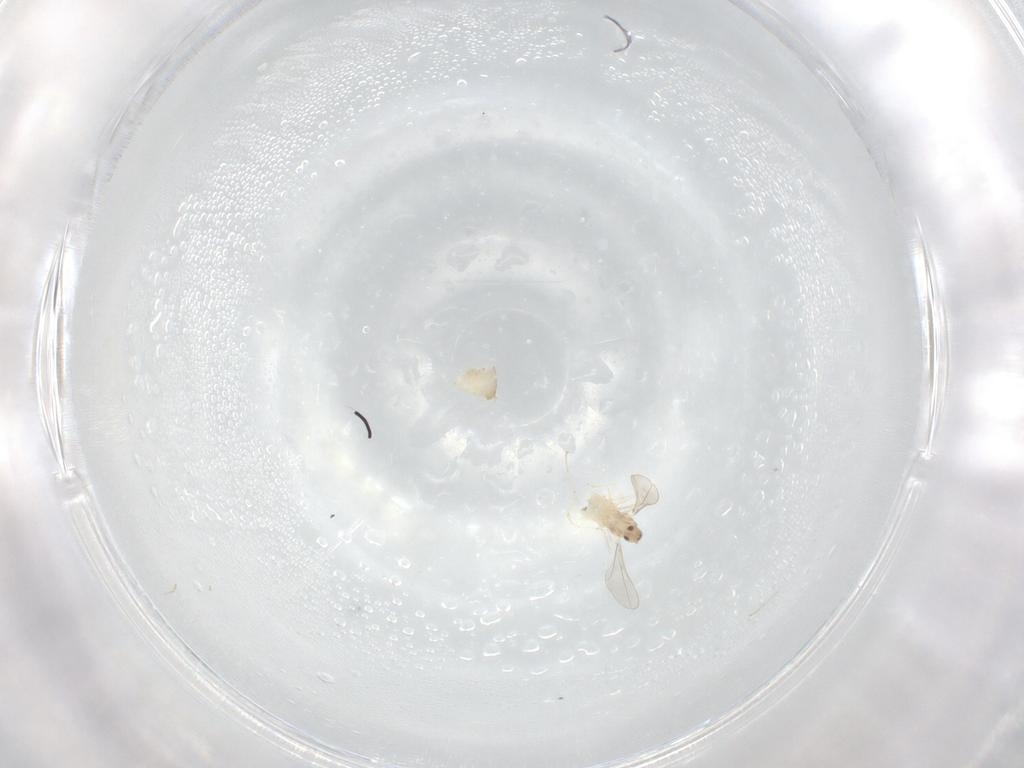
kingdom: Animalia
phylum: Arthropoda
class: Insecta
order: Diptera
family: Cecidomyiidae
